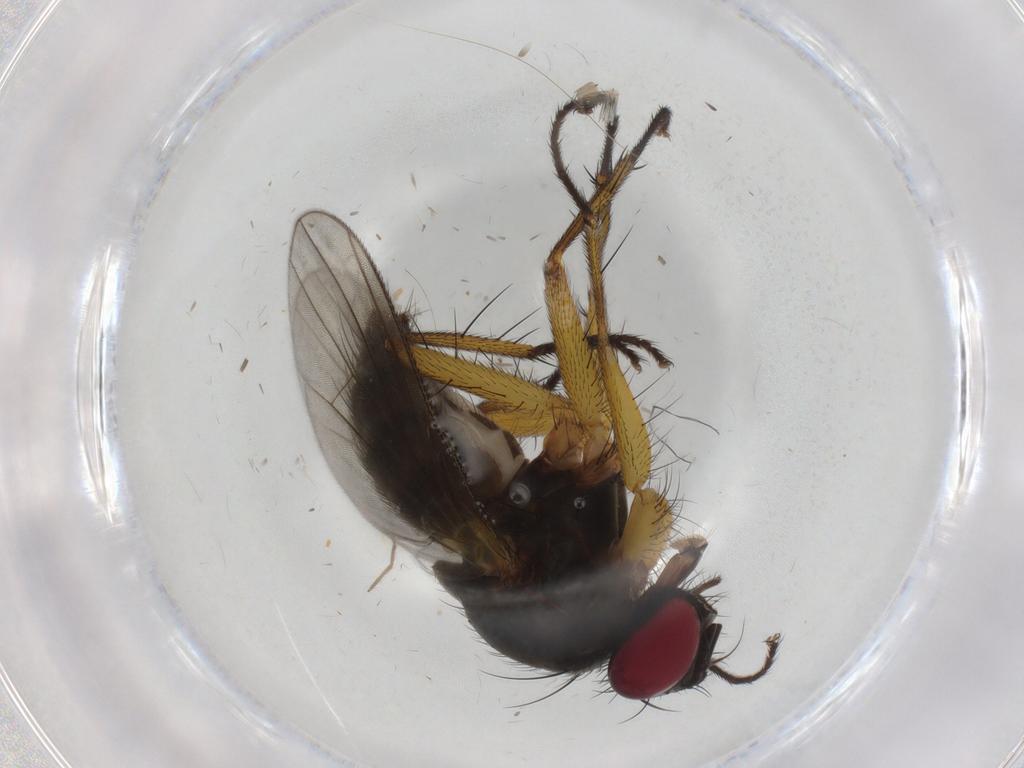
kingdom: Animalia
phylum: Arthropoda
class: Insecta
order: Diptera
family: Muscidae
